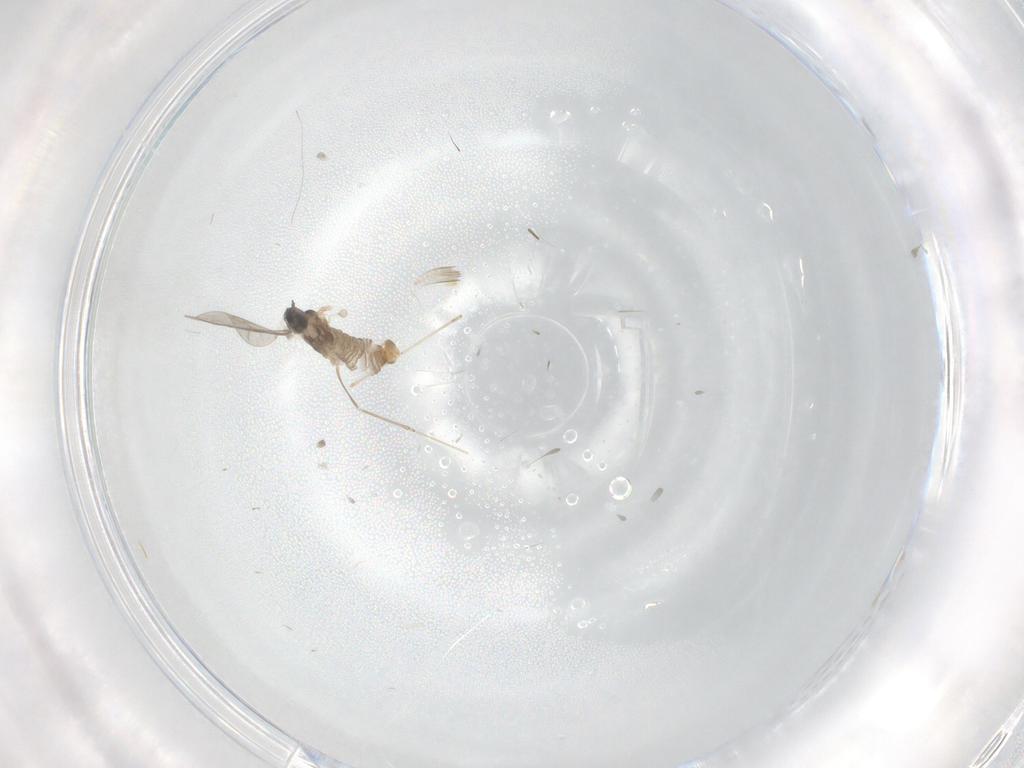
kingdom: Animalia
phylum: Arthropoda
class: Insecta
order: Diptera
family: Cecidomyiidae
